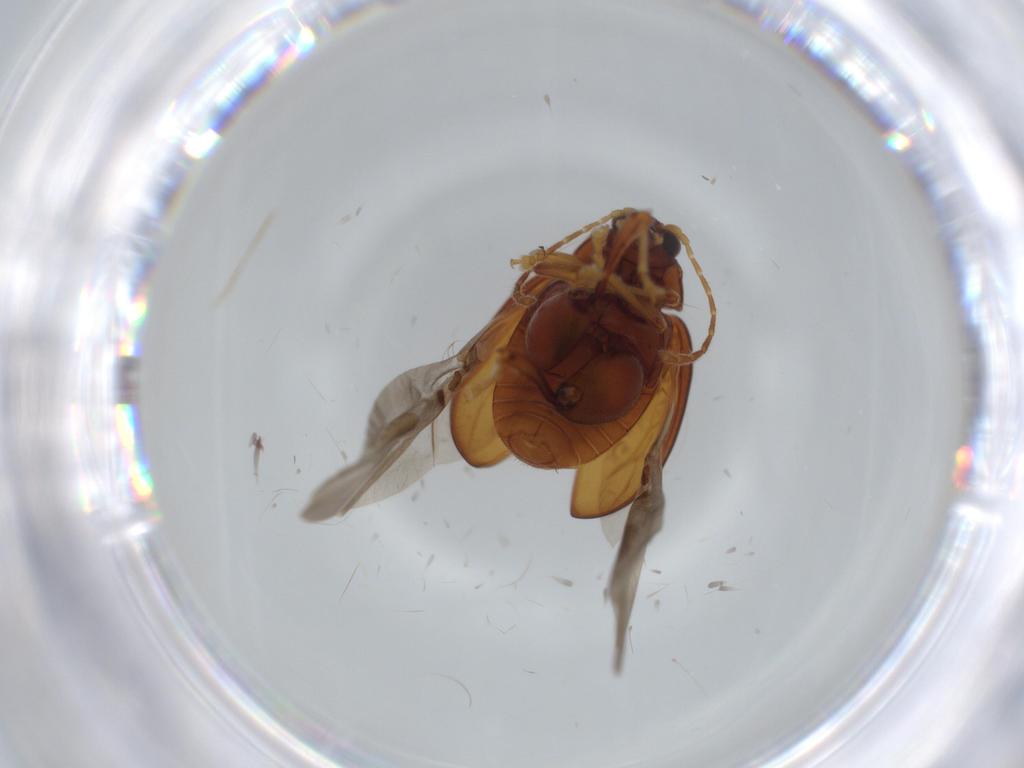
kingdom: Animalia
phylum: Arthropoda
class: Insecta
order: Coleoptera
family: Chrysomelidae
